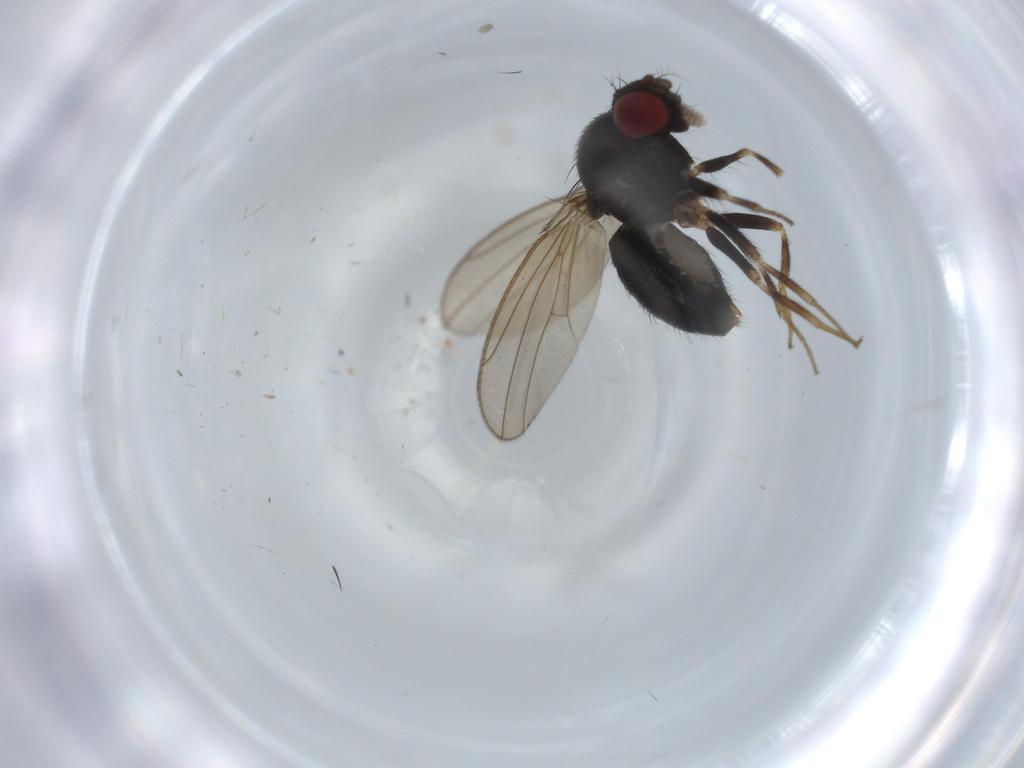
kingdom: Animalia
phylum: Arthropoda
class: Insecta
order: Diptera
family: Drosophilidae
